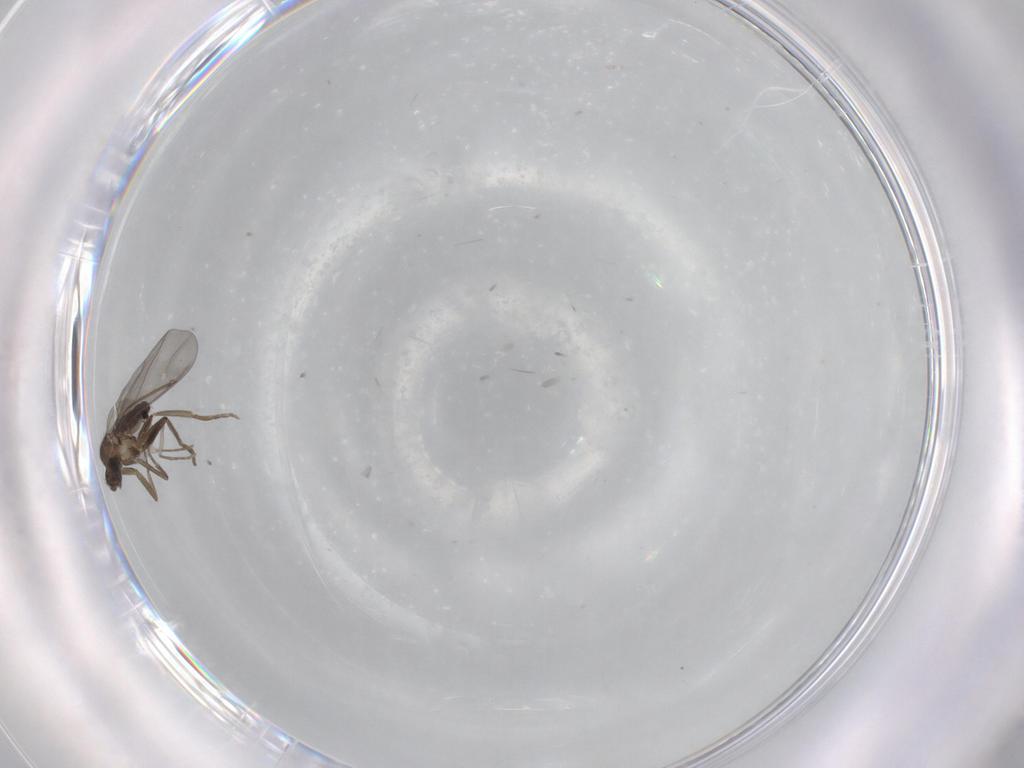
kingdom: Animalia
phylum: Arthropoda
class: Insecta
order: Diptera
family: Phoridae
